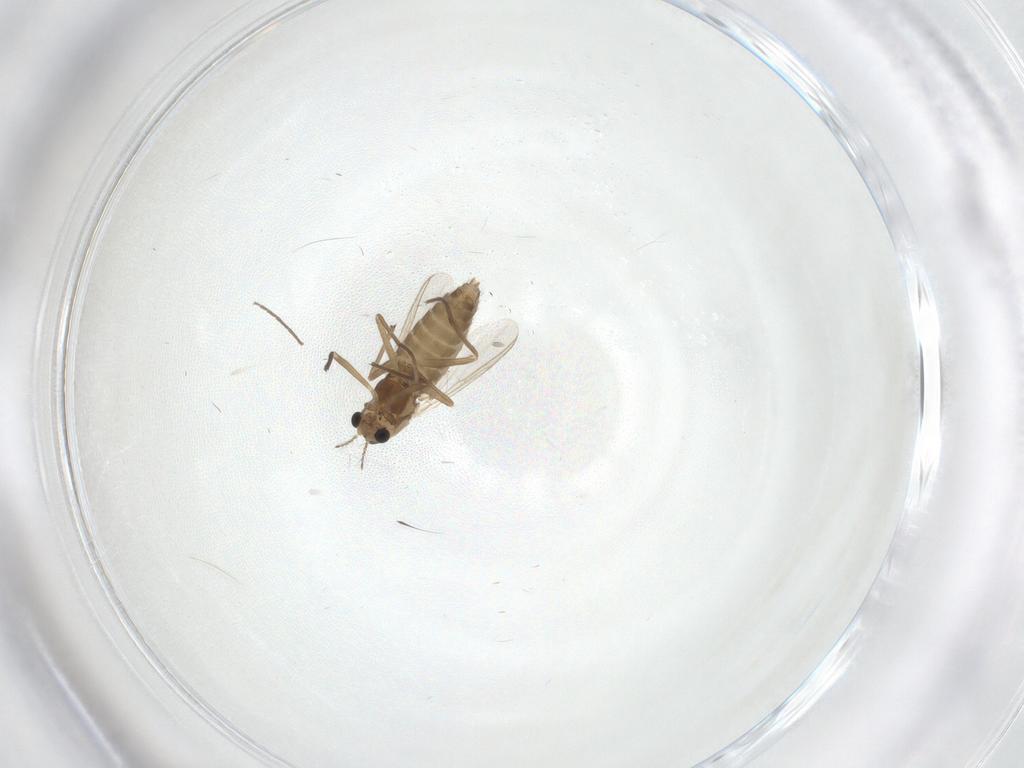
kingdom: Animalia
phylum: Arthropoda
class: Insecta
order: Diptera
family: Chironomidae
